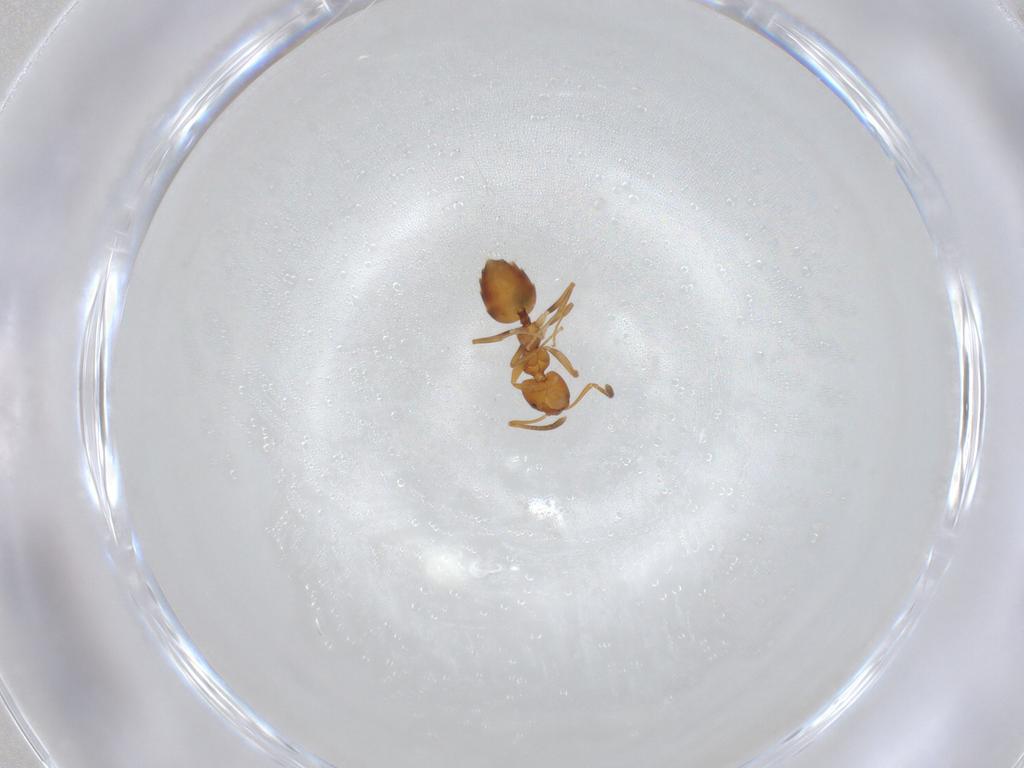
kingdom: Animalia
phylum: Arthropoda
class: Insecta
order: Hymenoptera
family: Formicidae
